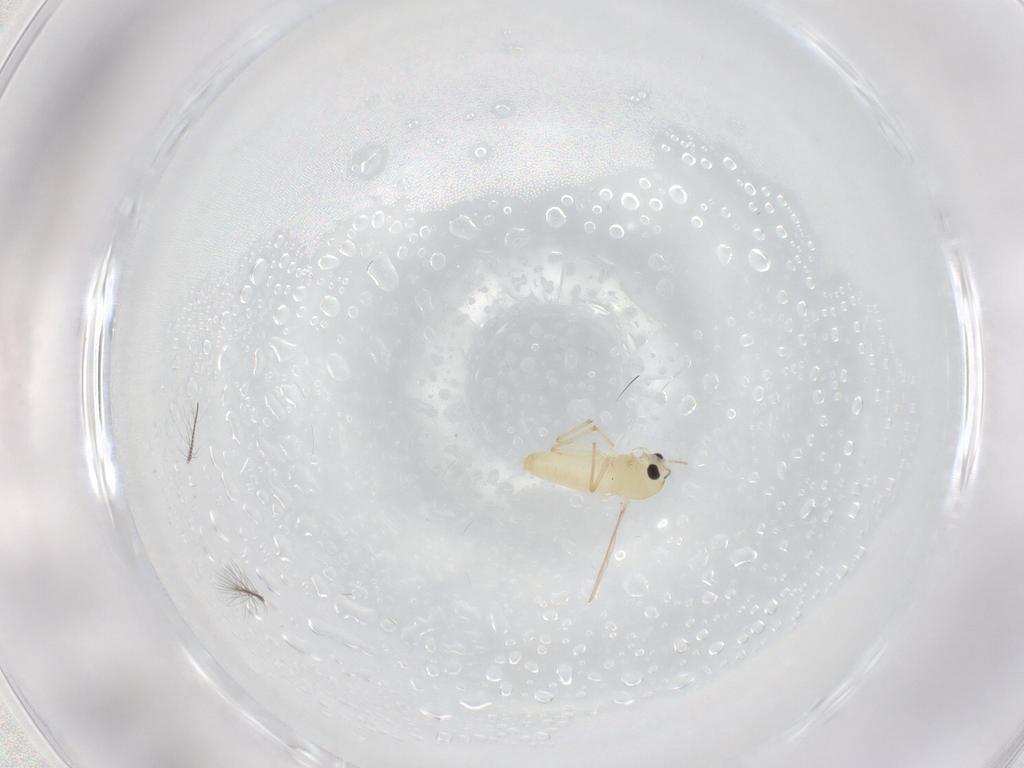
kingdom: Animalia
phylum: Arthropoda
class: Insecta
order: Diptera
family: Chironomidae
